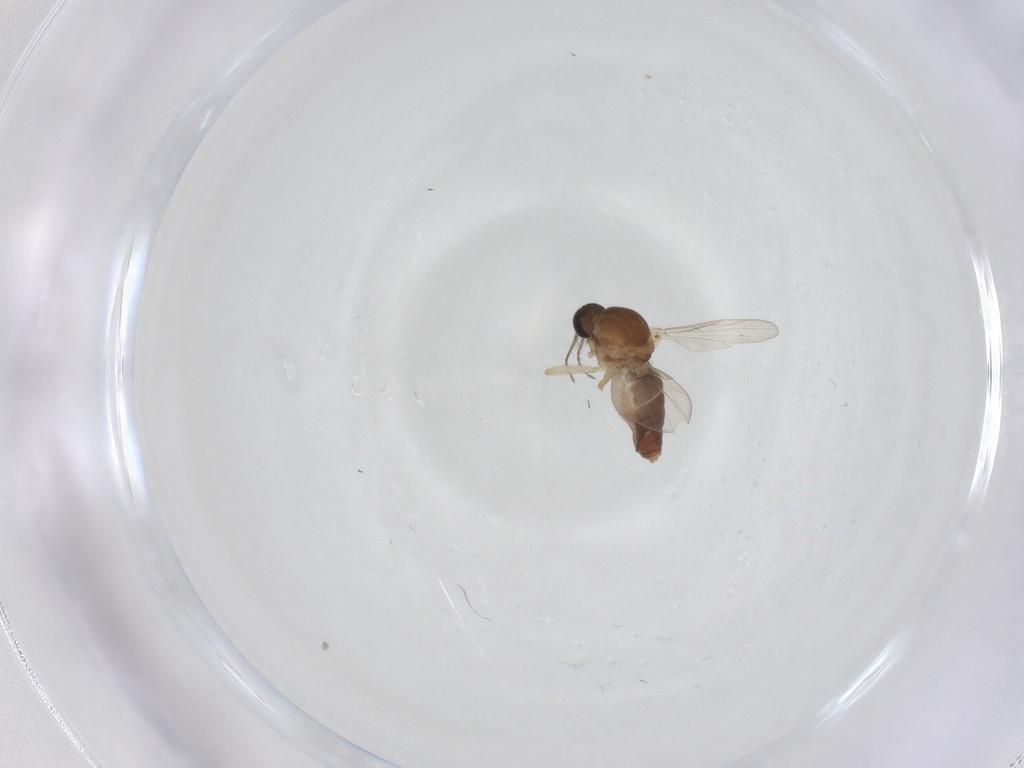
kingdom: Animalia
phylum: Arthropoda
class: Insecta
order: Diptera
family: Ceratopogonidae
